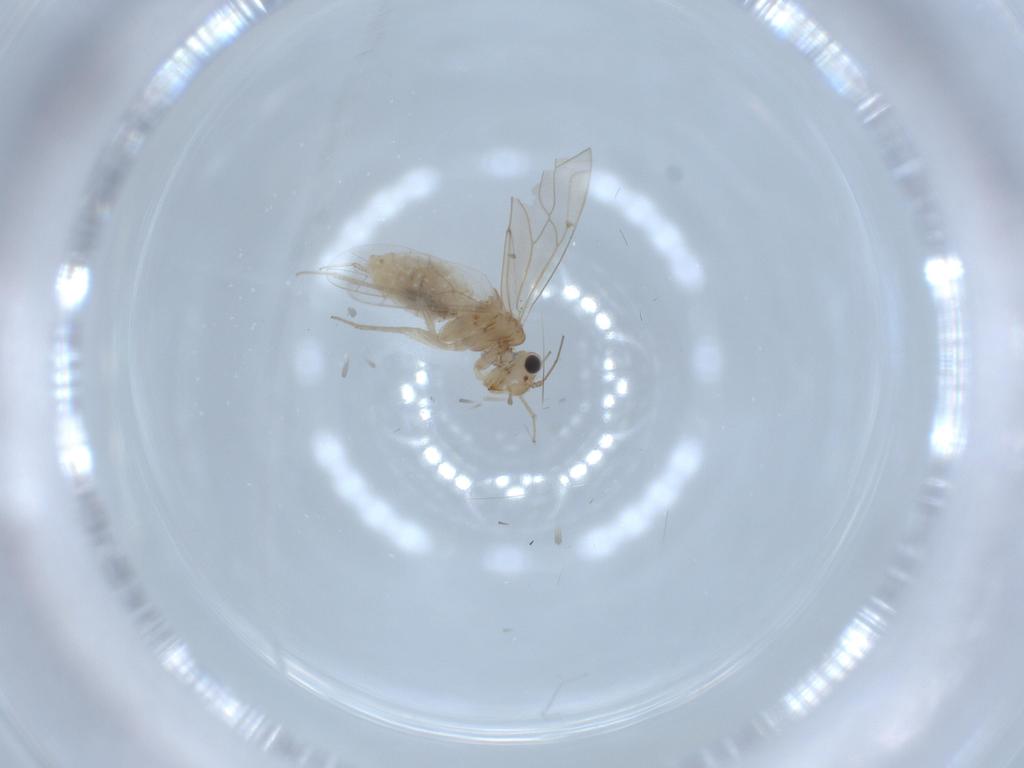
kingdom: Animalia
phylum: Arthropoda
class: Insecta
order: Psocodea
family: Lachesillidae
